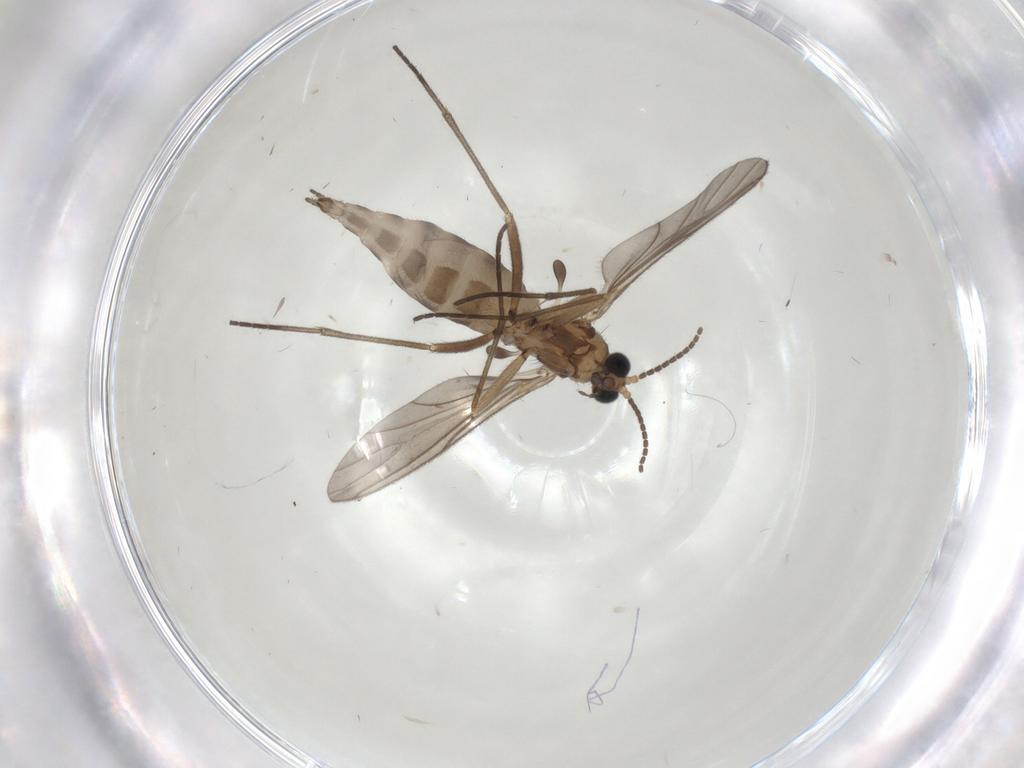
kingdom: Animalia
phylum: Arthropoda
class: Insecta
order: Diptera
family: Sciaridae
